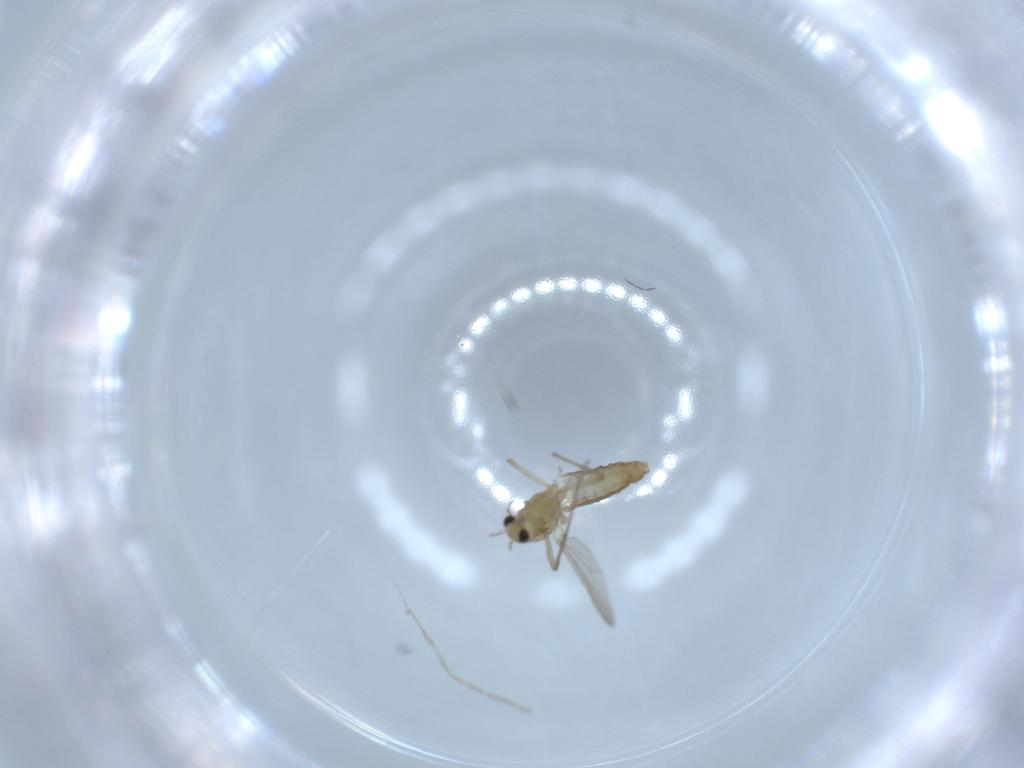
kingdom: Animalia
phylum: Arthropoda
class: Insecta
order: Diptera
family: Chironomidae
